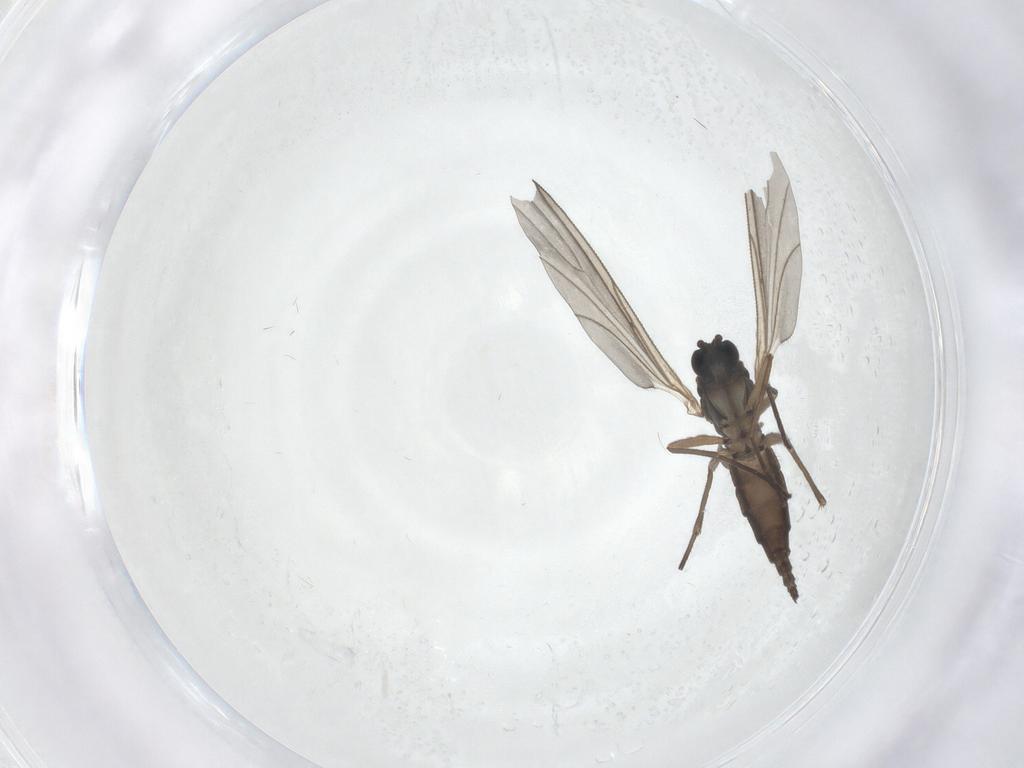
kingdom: Animalia
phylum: Arthropoda
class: Insecta
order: Diptera
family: Sciaridae
